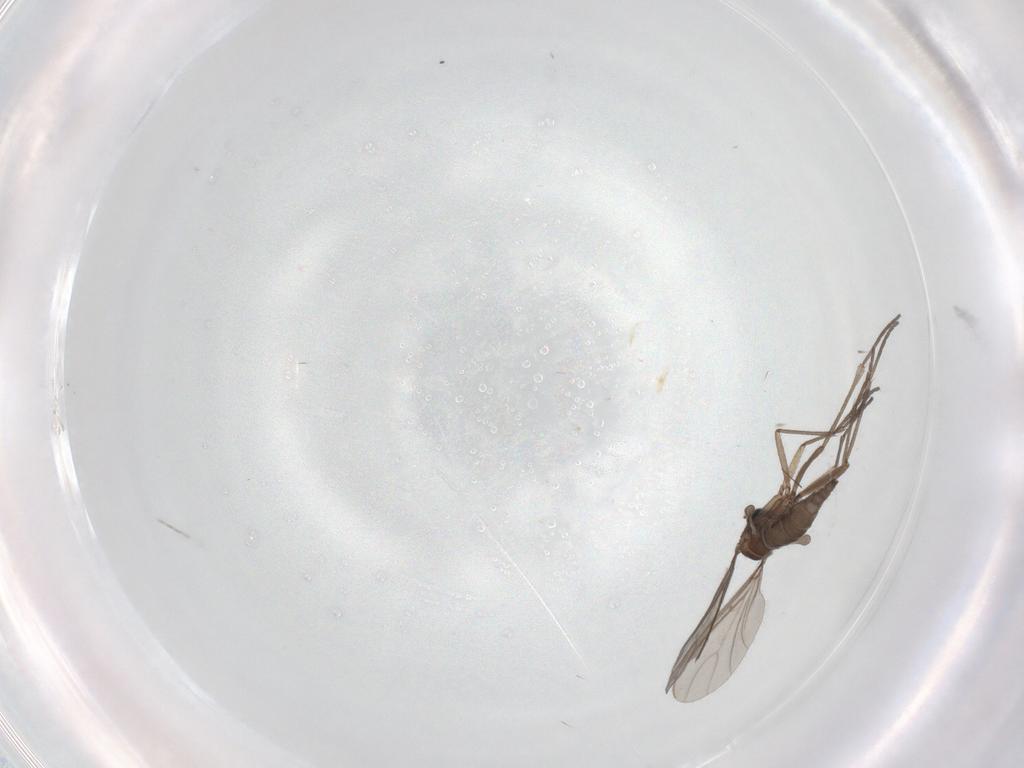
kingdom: Animalia
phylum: Arthropoda
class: Insecta
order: Diptera
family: Sciaridae
